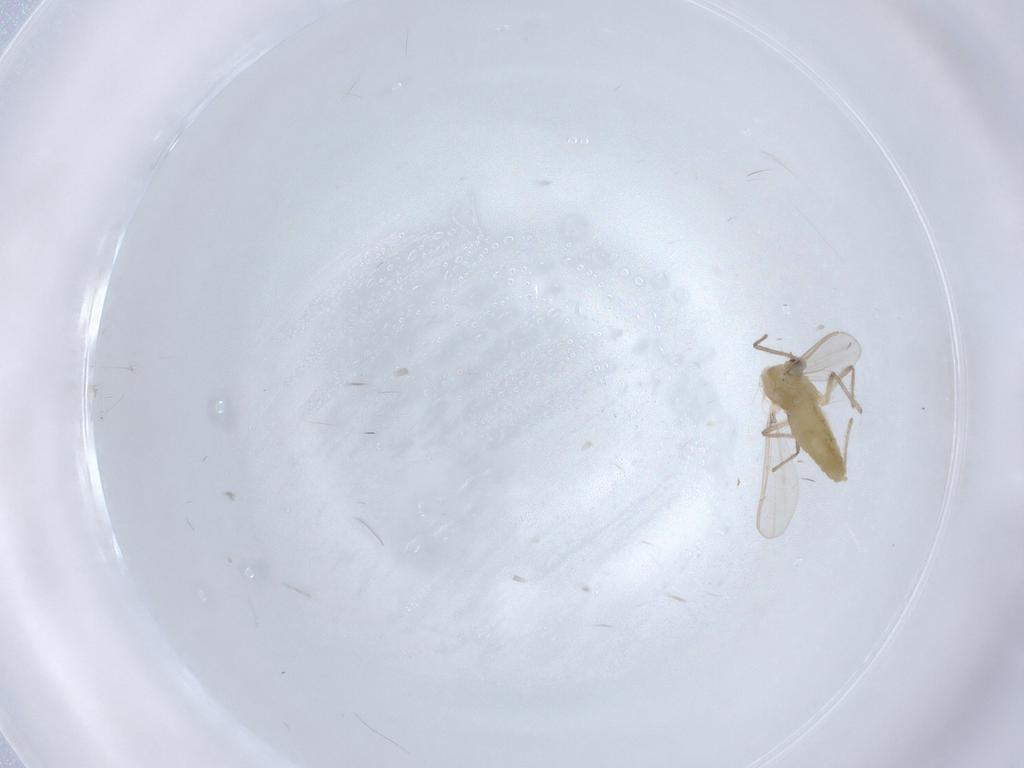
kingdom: Animalia
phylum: Arthropoda
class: Insecta
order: Diptera
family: Chironomidae
